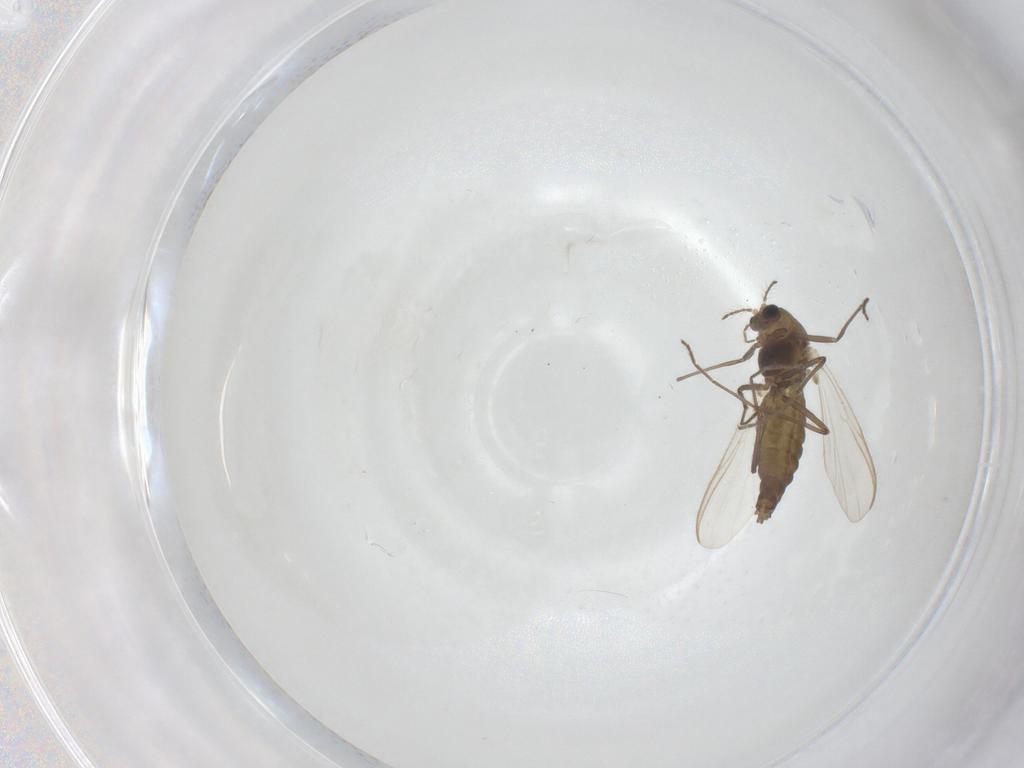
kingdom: Animalia
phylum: Arthropoda
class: Insecta
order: Diptera
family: Chironomidae
